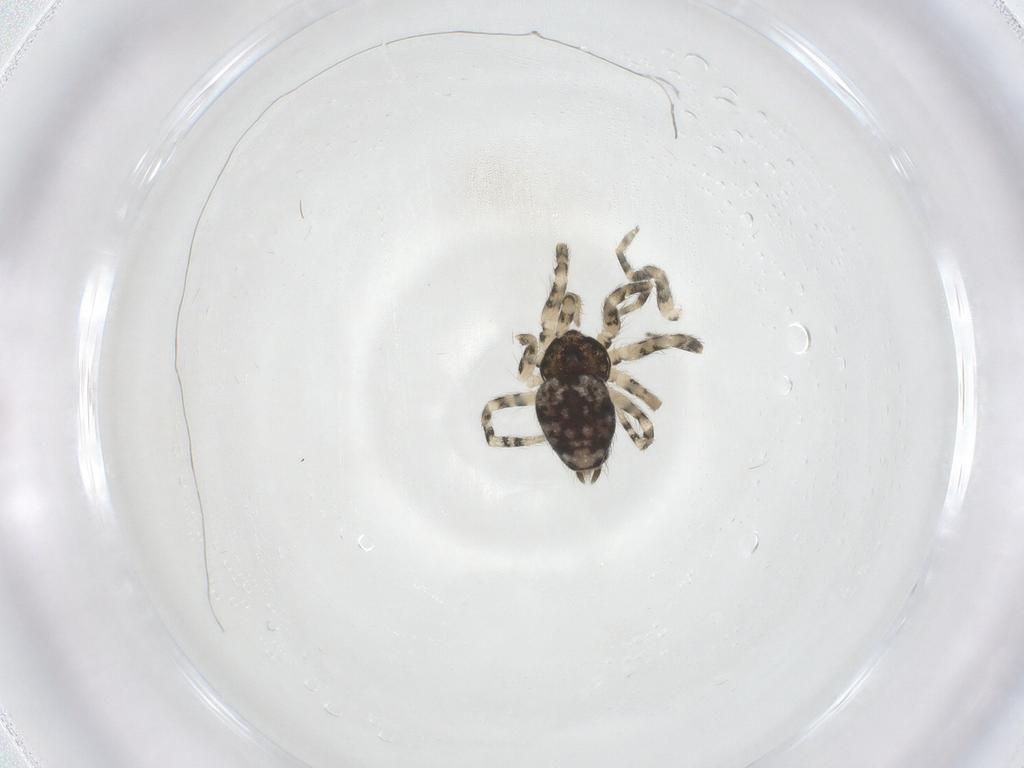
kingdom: Animalia
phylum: Arthropoda
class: Arachnida
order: Araneae
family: Oecobiidae
